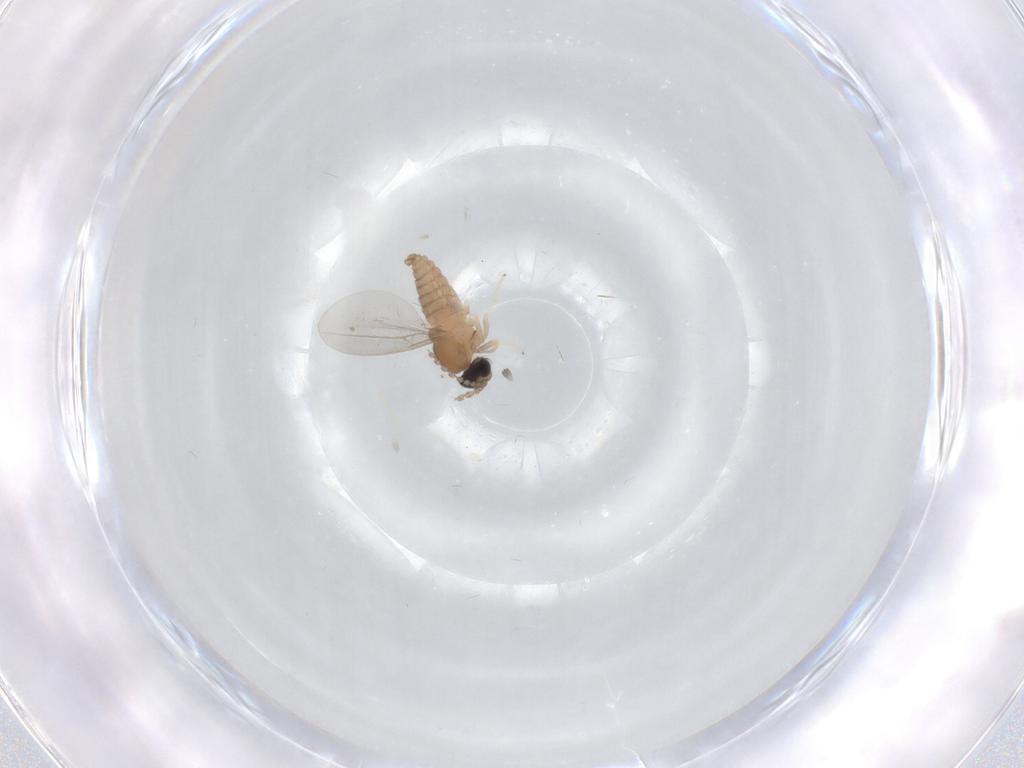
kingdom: Animalia
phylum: Arthropoda
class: Insecta
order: Diptera
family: Cecidomyiidae
